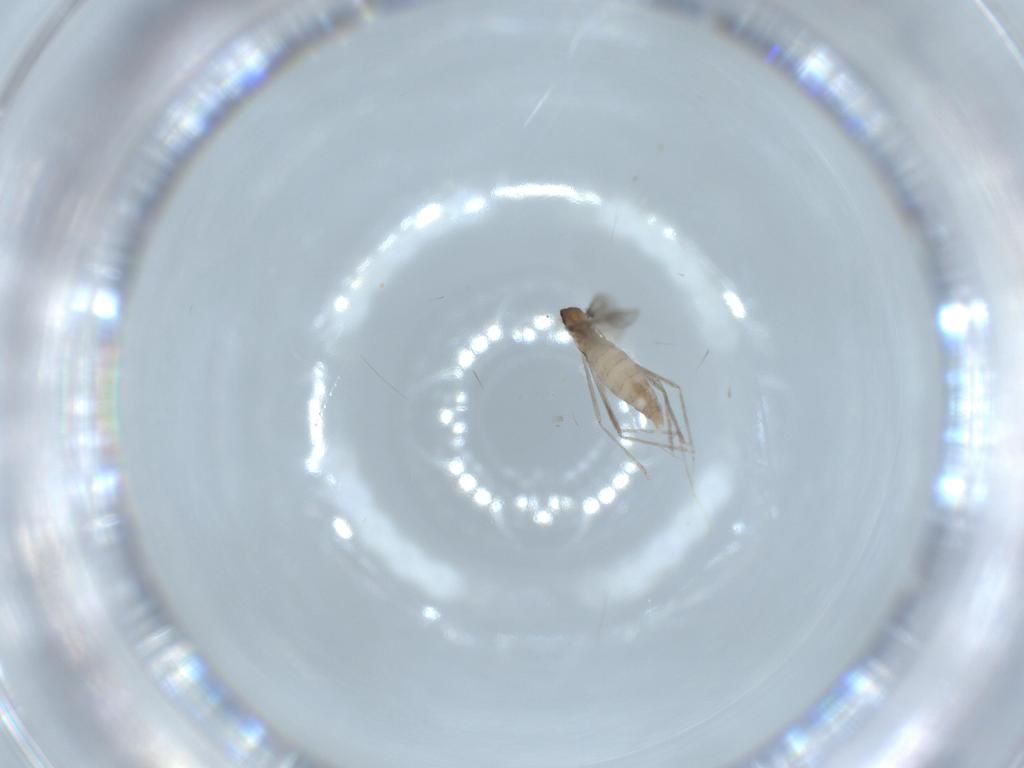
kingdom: Animalia
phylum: Arthropoda
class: Insecta
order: Diptera
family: Cecidomyiidae
